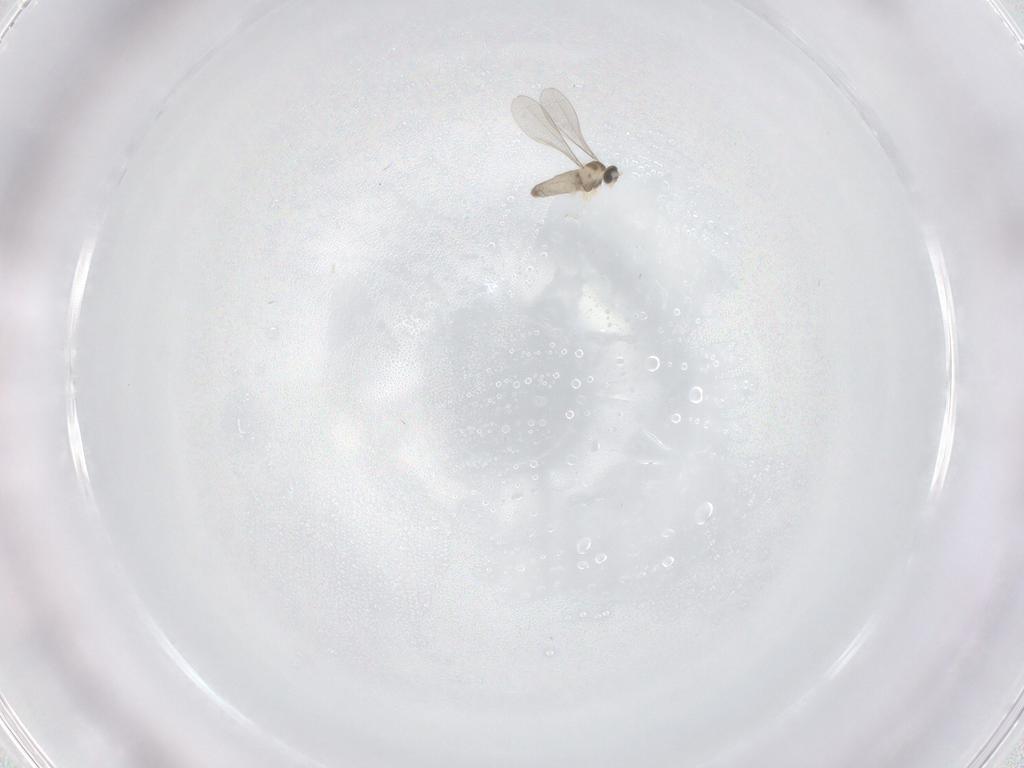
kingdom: Animalia
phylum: Arthropoda
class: Insecta
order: Diptera
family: Cecidomyiidae
